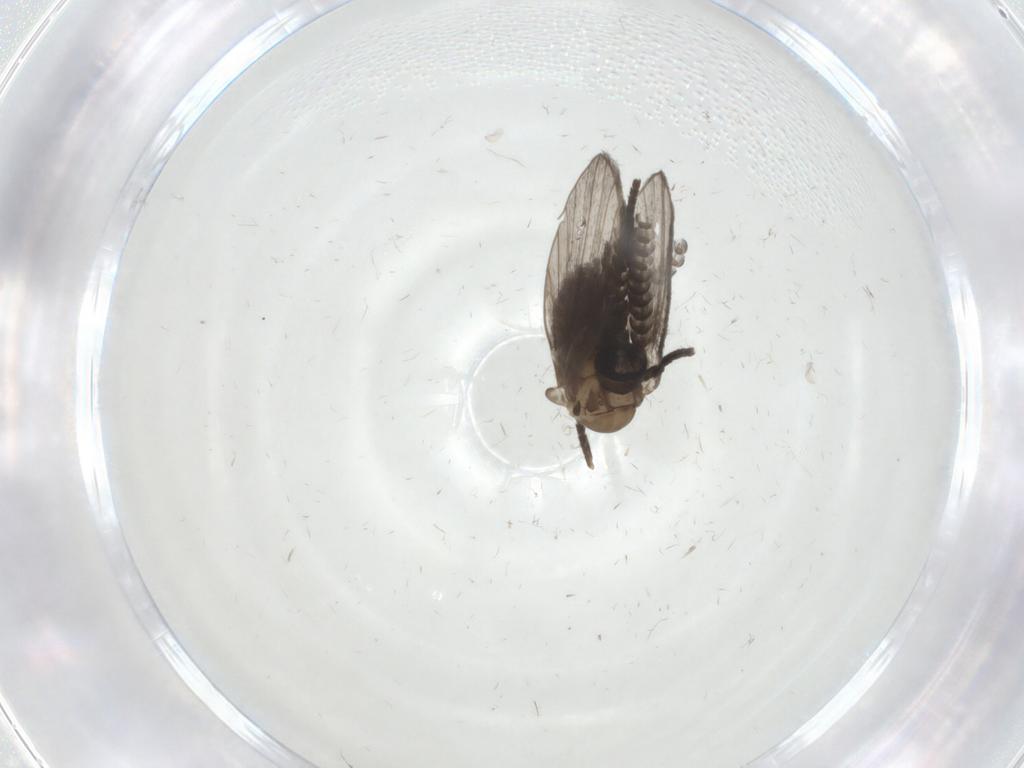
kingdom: Animalia
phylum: Arthropoda
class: Insecta
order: Diptera
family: Psychodidae
